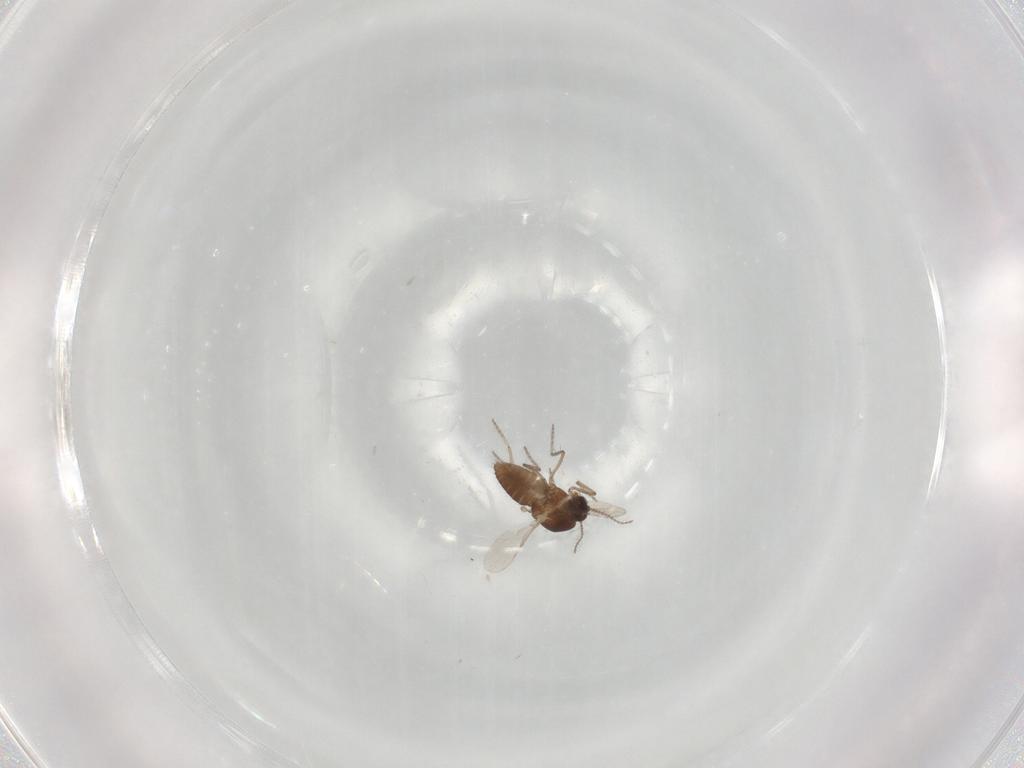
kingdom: Animalia
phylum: Arthropoda
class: Insecta
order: Diptera
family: Ceratopogonidae
